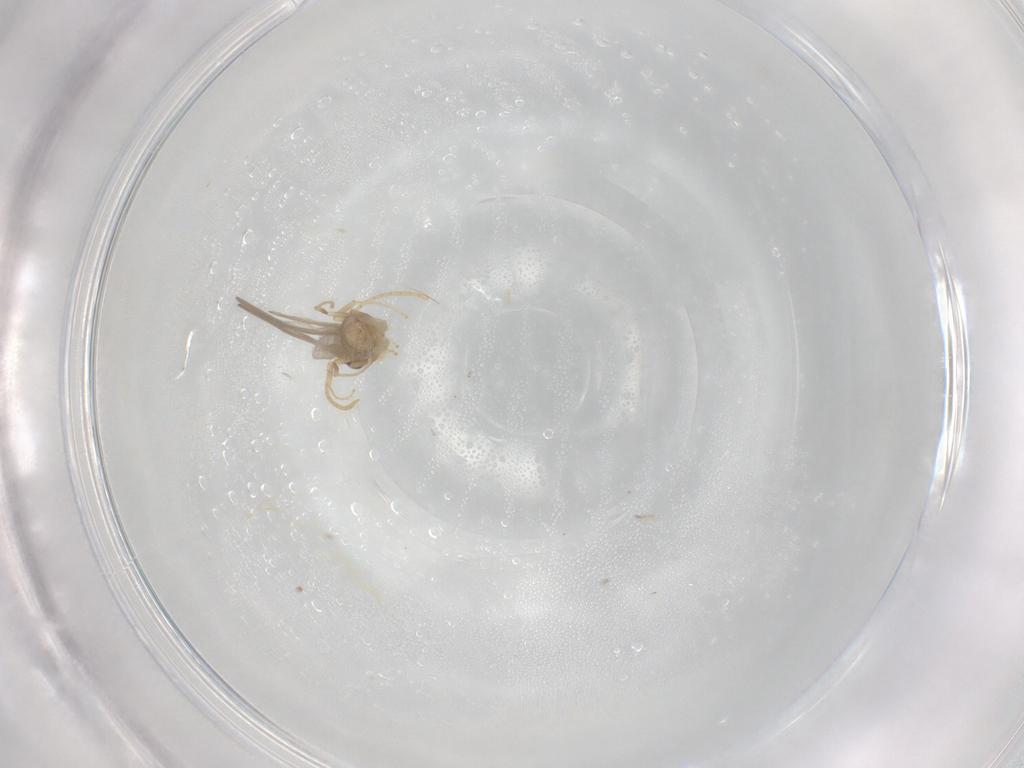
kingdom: Animalia
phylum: Arthropoda
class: Insecta
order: Hymenoptera
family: Formicidae
